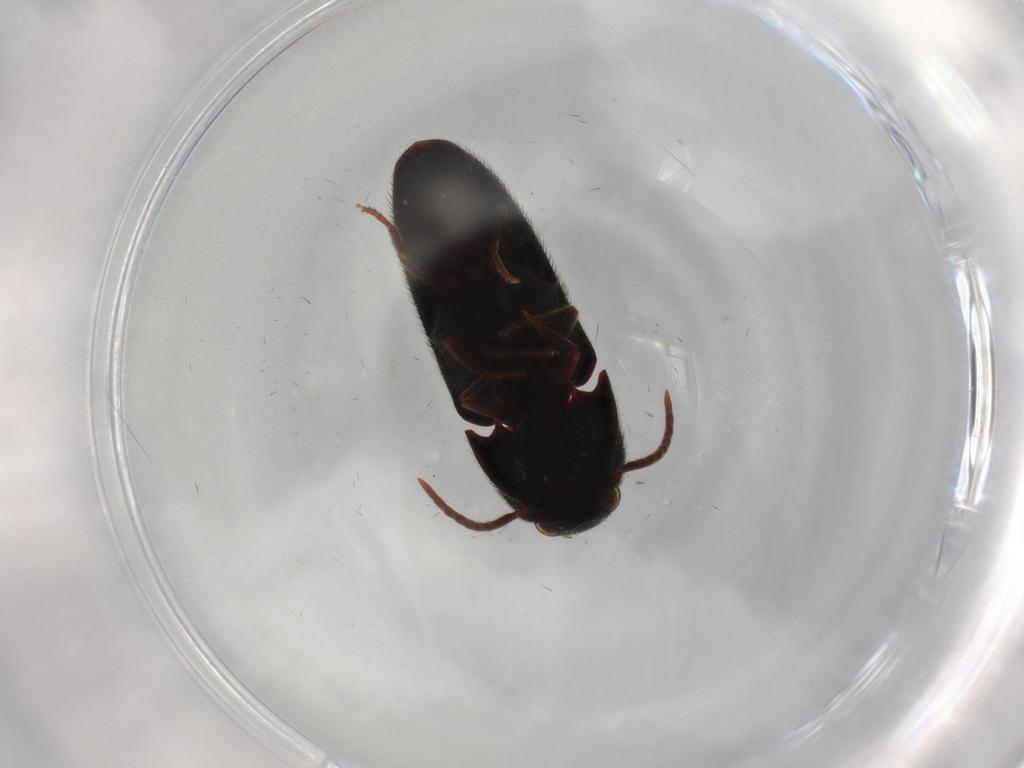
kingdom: Animalia
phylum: Arthropoda
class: Insecta
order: Coleoptera
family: Eucnemidae
